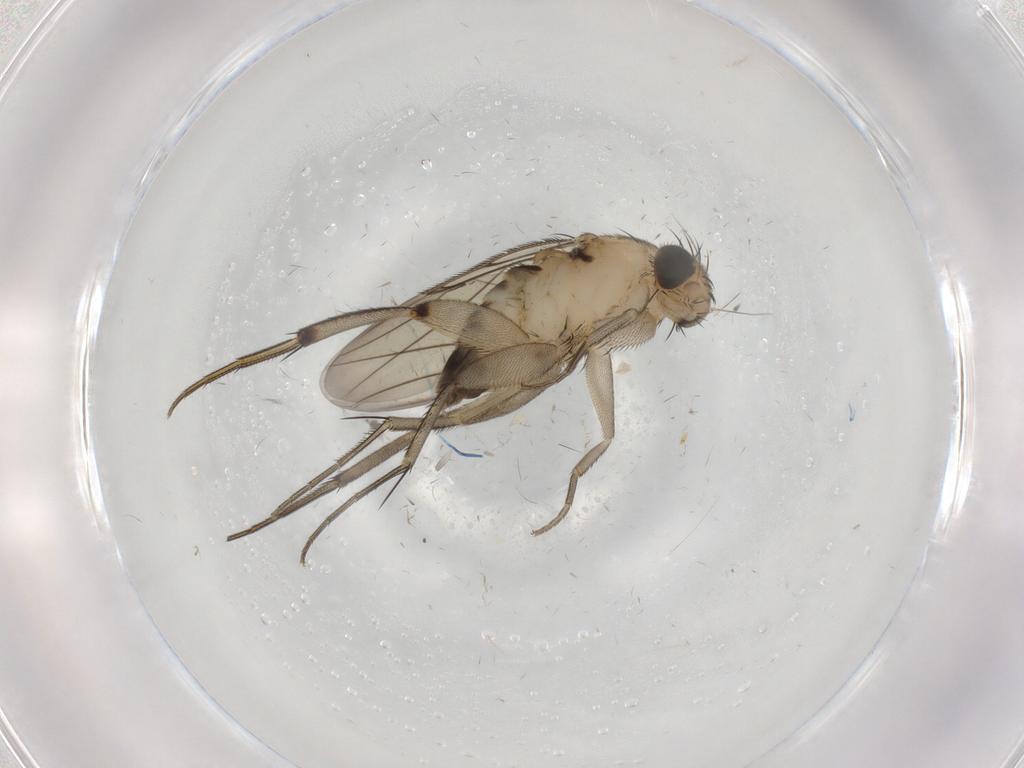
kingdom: Animalia
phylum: Arthropoda
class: Insecta
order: Diptera
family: Phoridae
